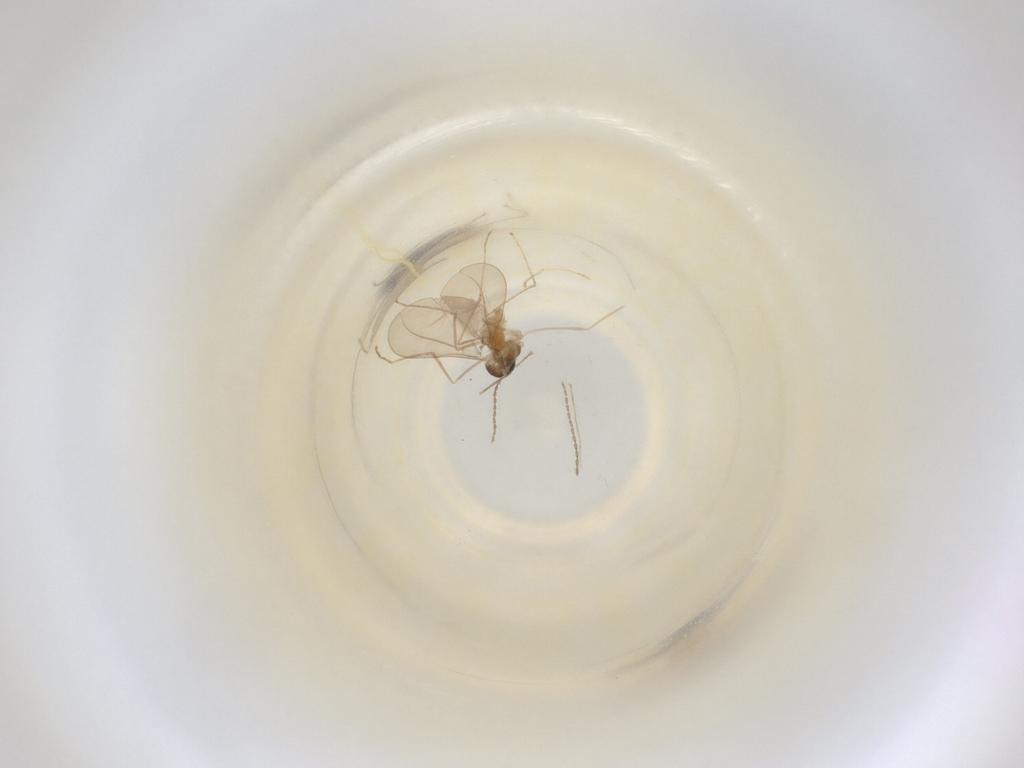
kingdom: Animalia
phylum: Arthropoda
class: Insecta
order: Diptera
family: Cecidomyiidae
